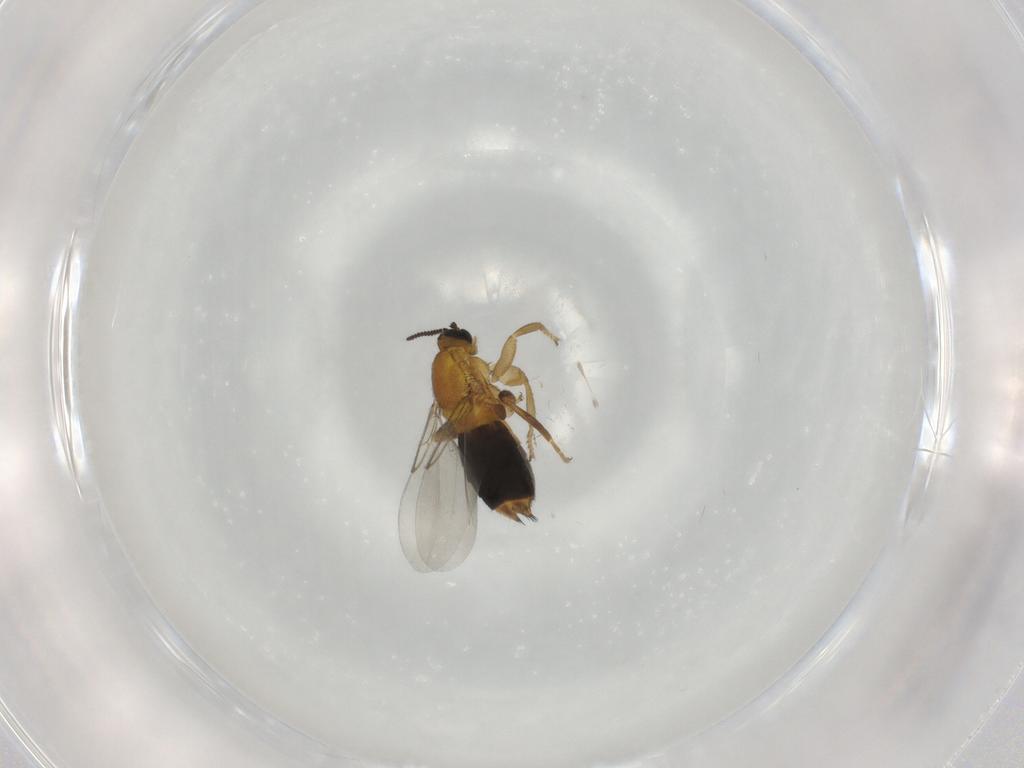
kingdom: Animalia
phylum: Arthropoda
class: Insecta
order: Diptera
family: Scatopsidae
